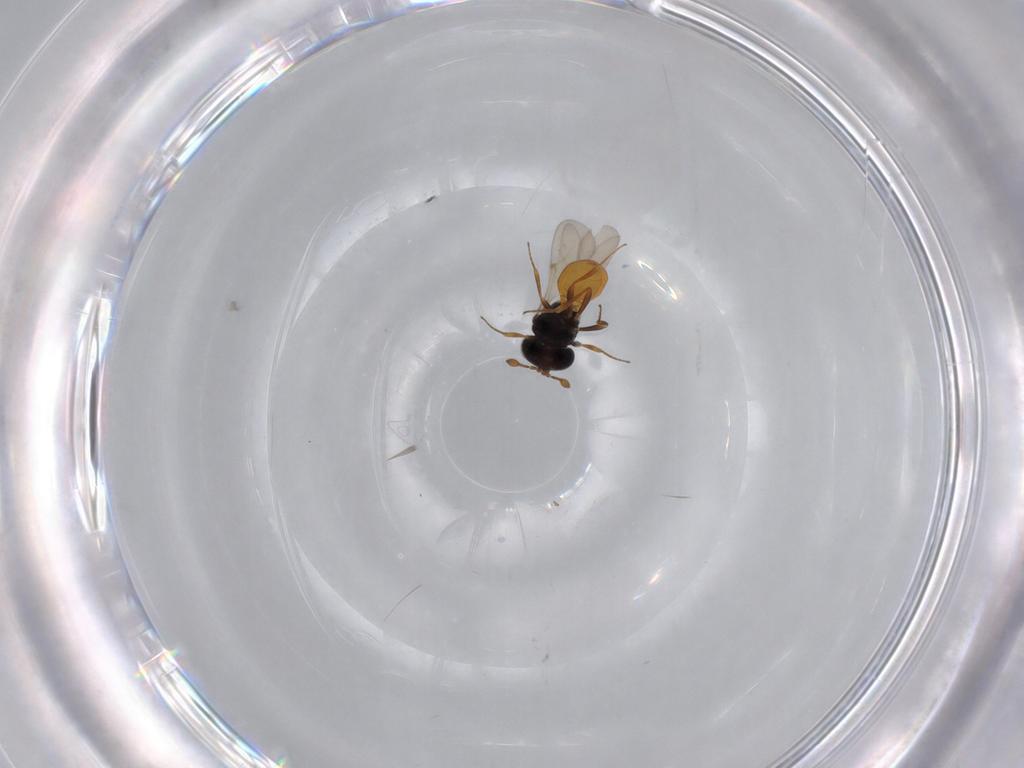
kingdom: Animalia
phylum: Arthropoda
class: Insecta
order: Hymenoptera
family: Scelionidae
